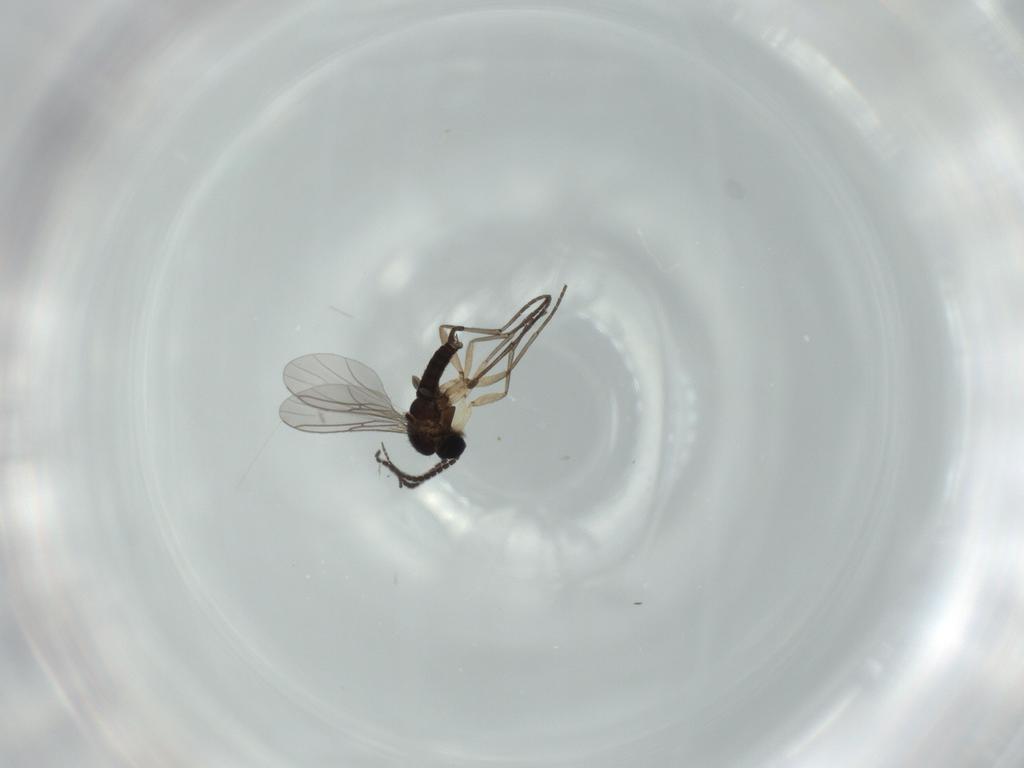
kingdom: Animalia
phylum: Arthropoda
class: Insecta
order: Diptera
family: Sciaridae
